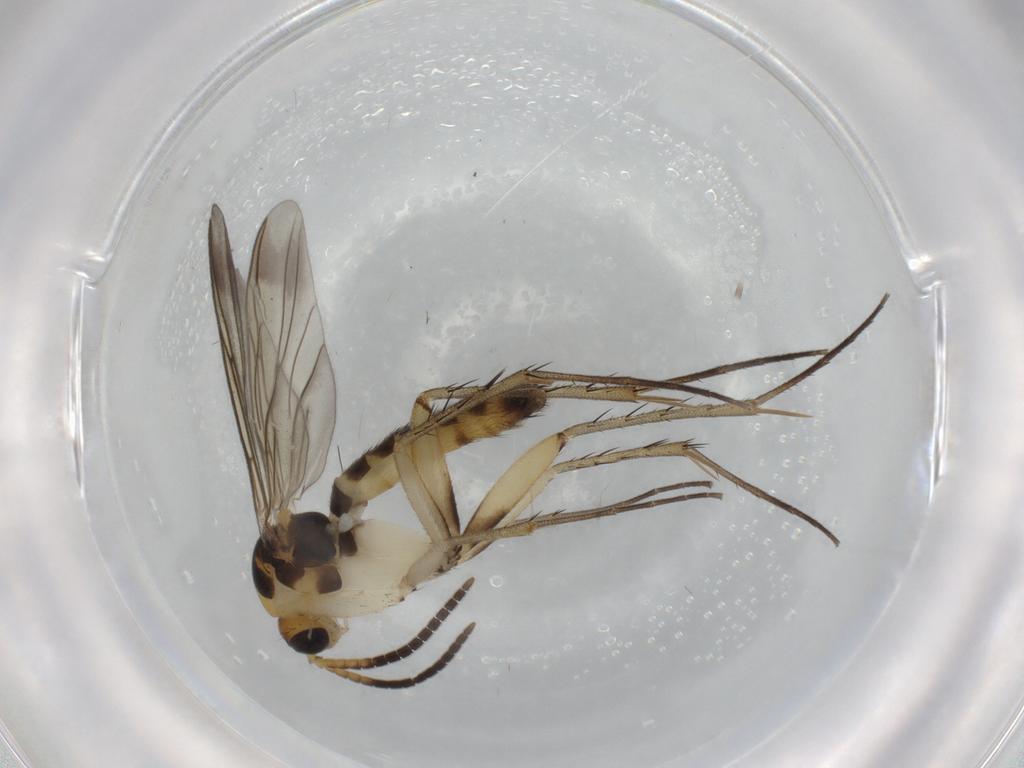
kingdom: Animalia
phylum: Arthropoda
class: Insecta
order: Diptera
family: Mycetophilidae
